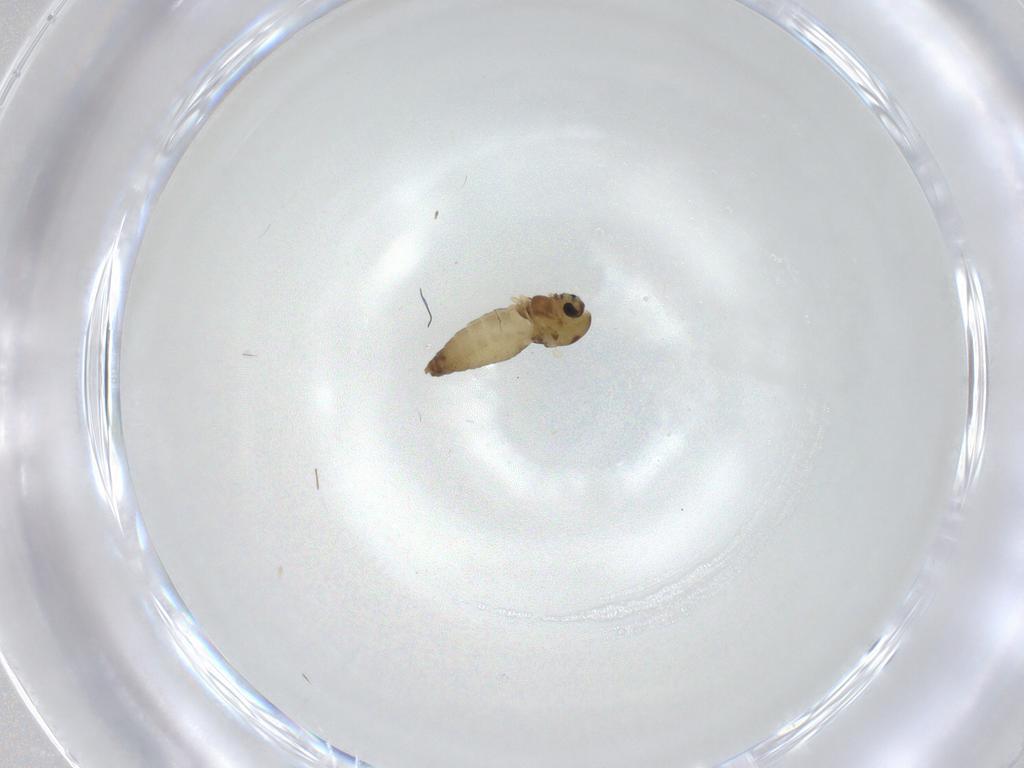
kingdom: Animalia
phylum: Arthropoda
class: Insecta
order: Diptera
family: Chironomidae
